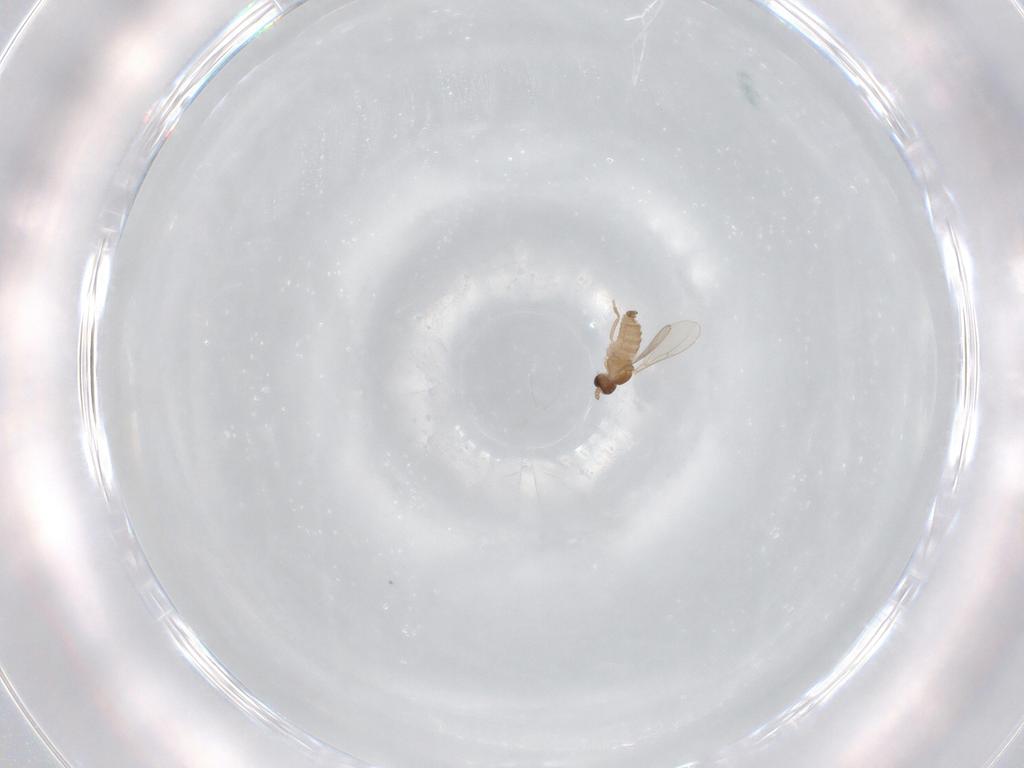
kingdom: Animalia
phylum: Arthropoda
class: Insecta
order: Diptera
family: Cecidomyiidae
